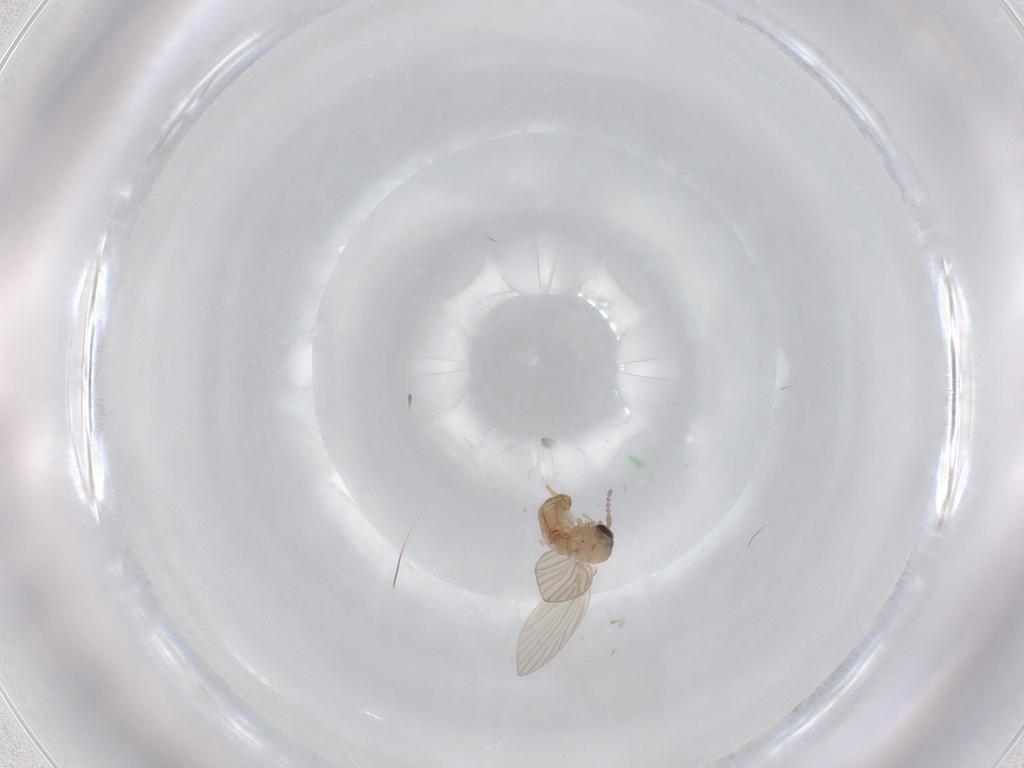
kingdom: Animalia
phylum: Arthropoda
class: Insecta
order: Diptera
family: Psychodidae
